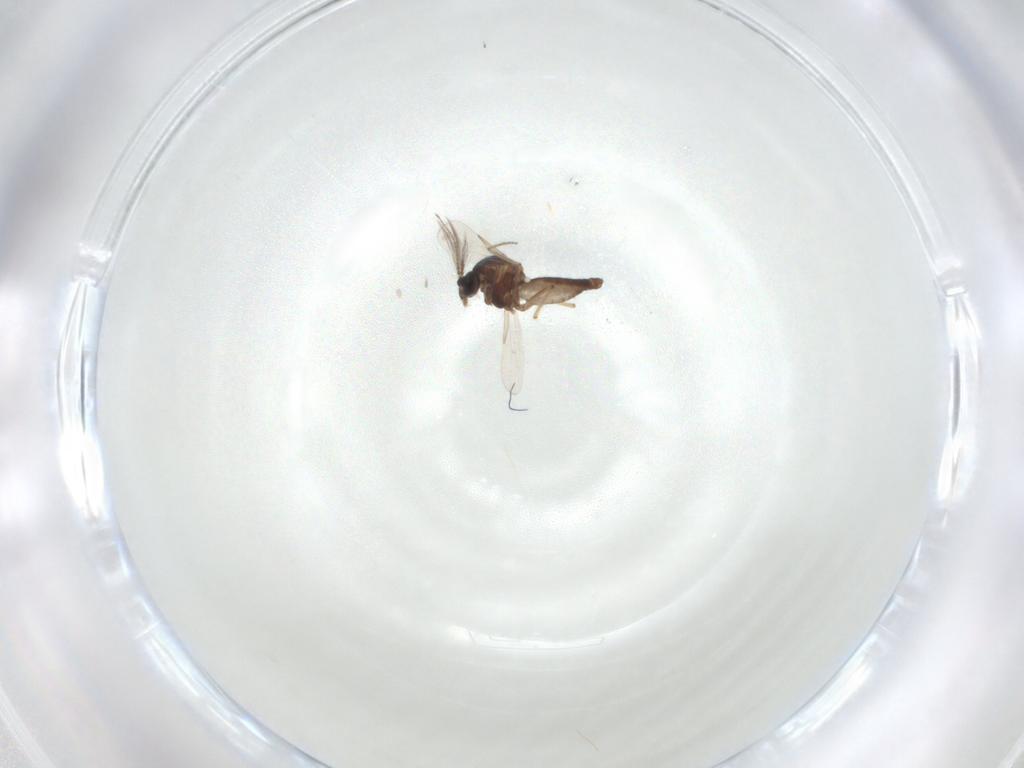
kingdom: Animalia
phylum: Arthropoda
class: Insecta
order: Diptera
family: Ceratopogonidae
